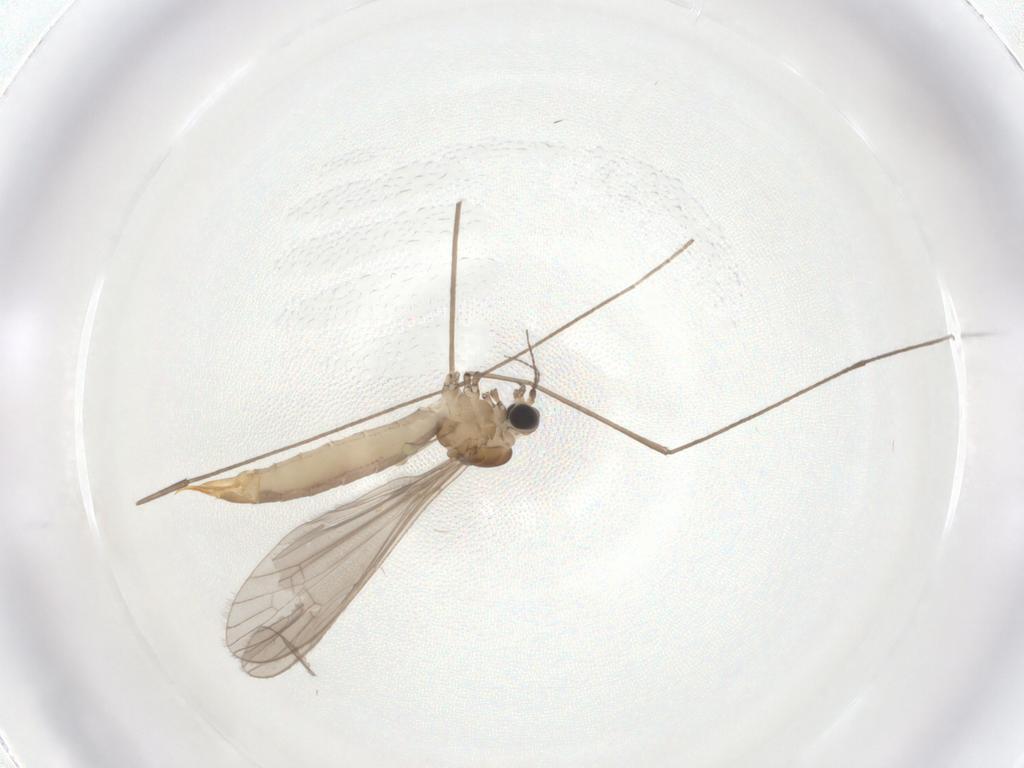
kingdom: Animalia
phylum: Arthropoda
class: Insecta
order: Diptera
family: Limoniidae
